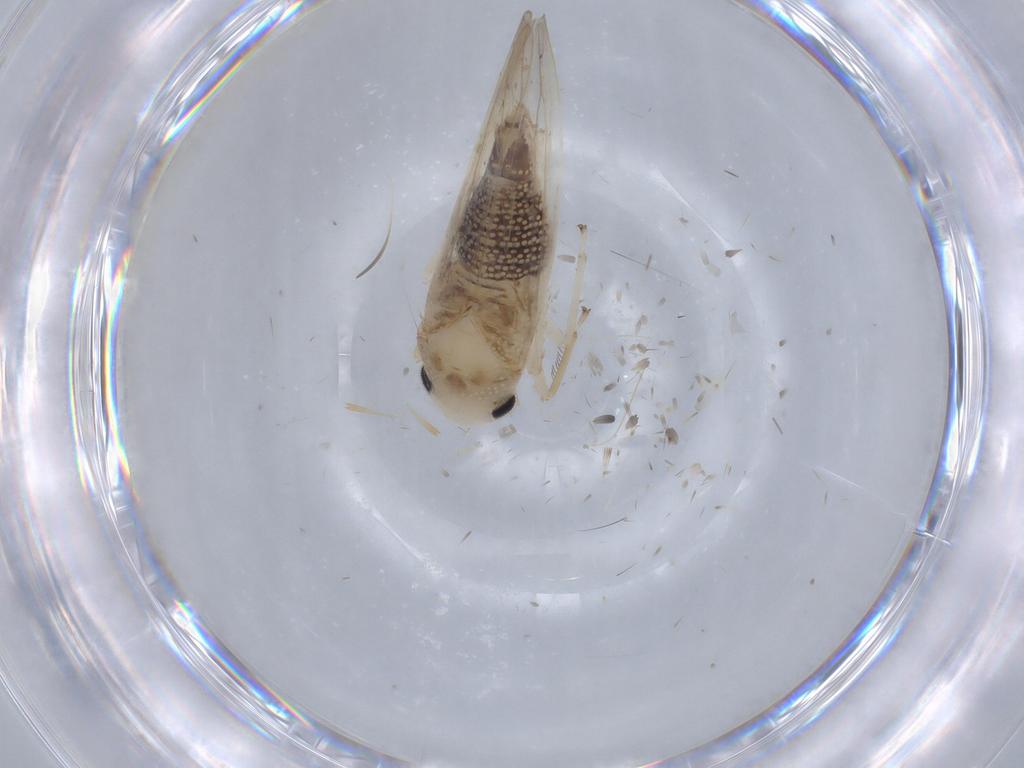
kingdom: Animalia
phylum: Arthropoda
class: Insecta
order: Hemiptera
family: Cicadellidae
